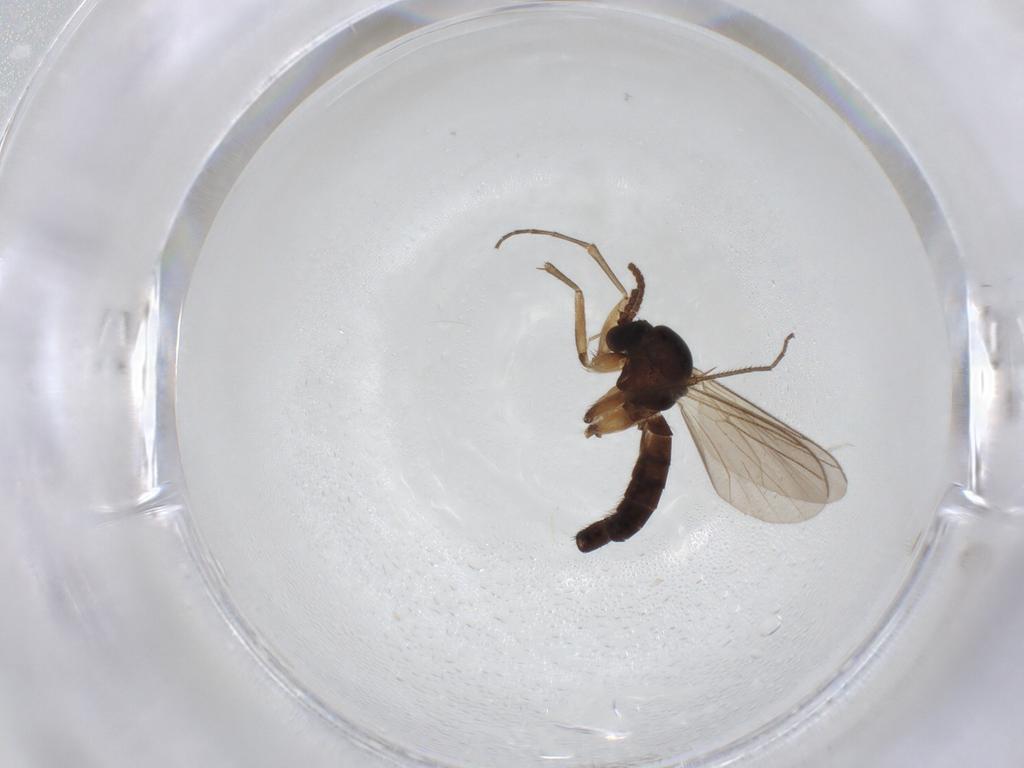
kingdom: Animalia
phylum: Arthropoda
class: Insecta
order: Diptera
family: Mycetophilidae
